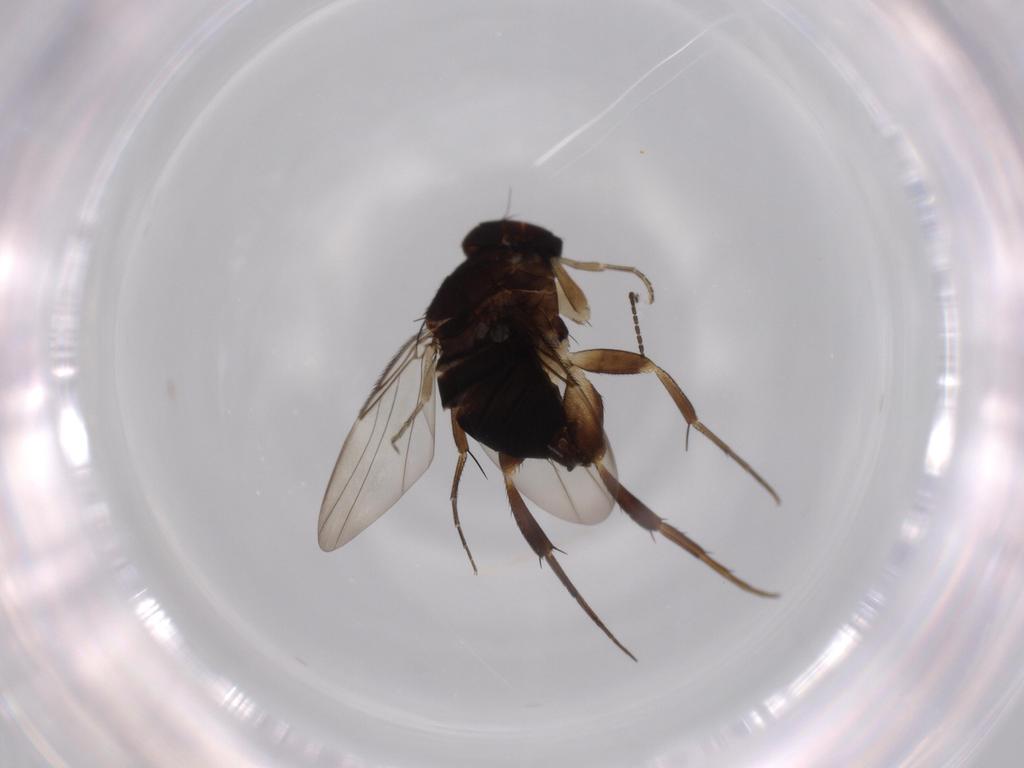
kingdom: Animalia
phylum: Arthropoda
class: Insecta
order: Diptera
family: Phoridae
